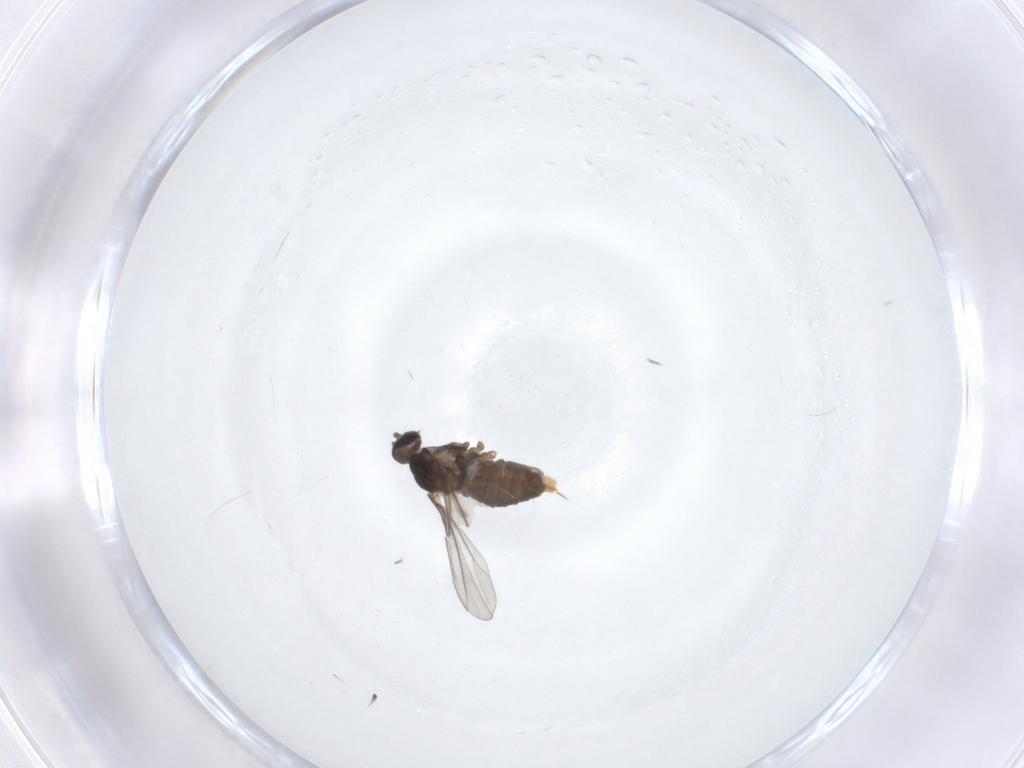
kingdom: Animalia
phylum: Arthropoda
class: Insecta
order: Diptera
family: Cecidomyiidae
